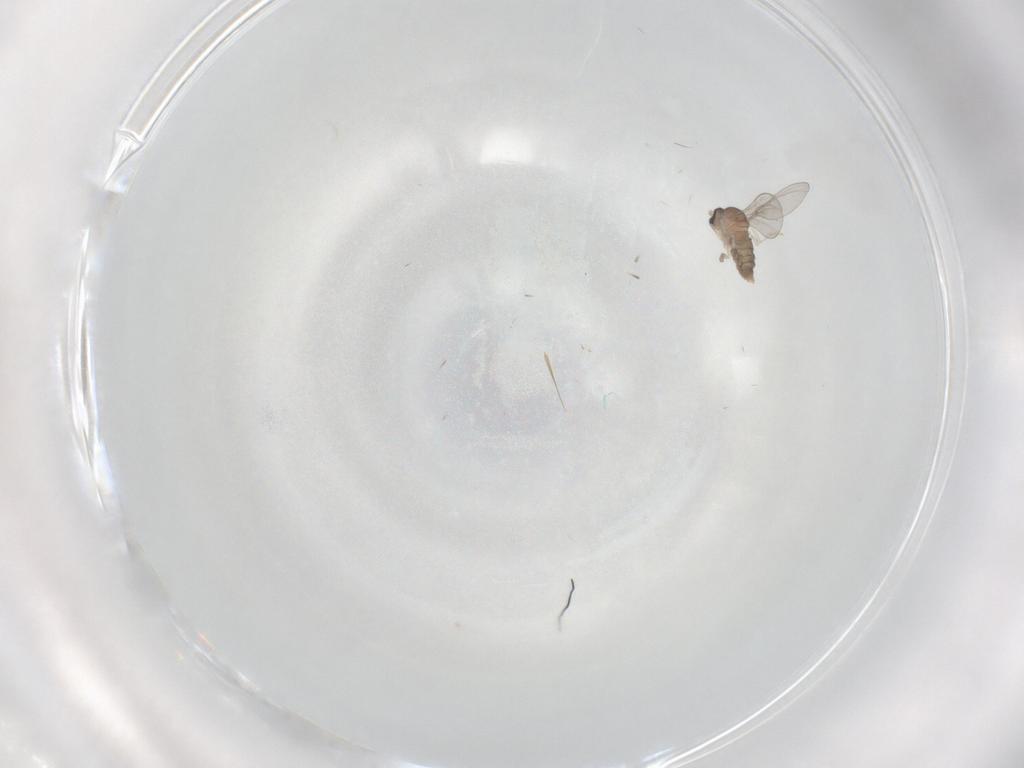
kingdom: Animalia
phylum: Arthropoda
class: Insecta
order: Diptera
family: Cecidomyiidae
